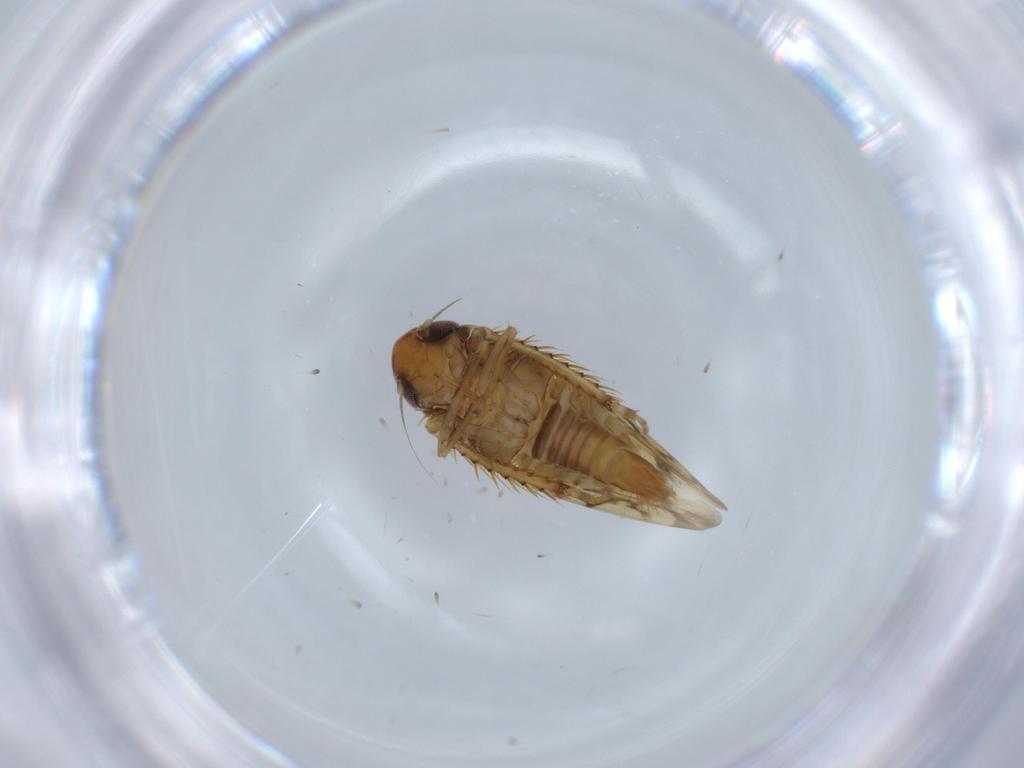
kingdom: Animalia
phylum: Arthropoda
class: Insecta
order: Hemiptera
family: Cicadellidae
